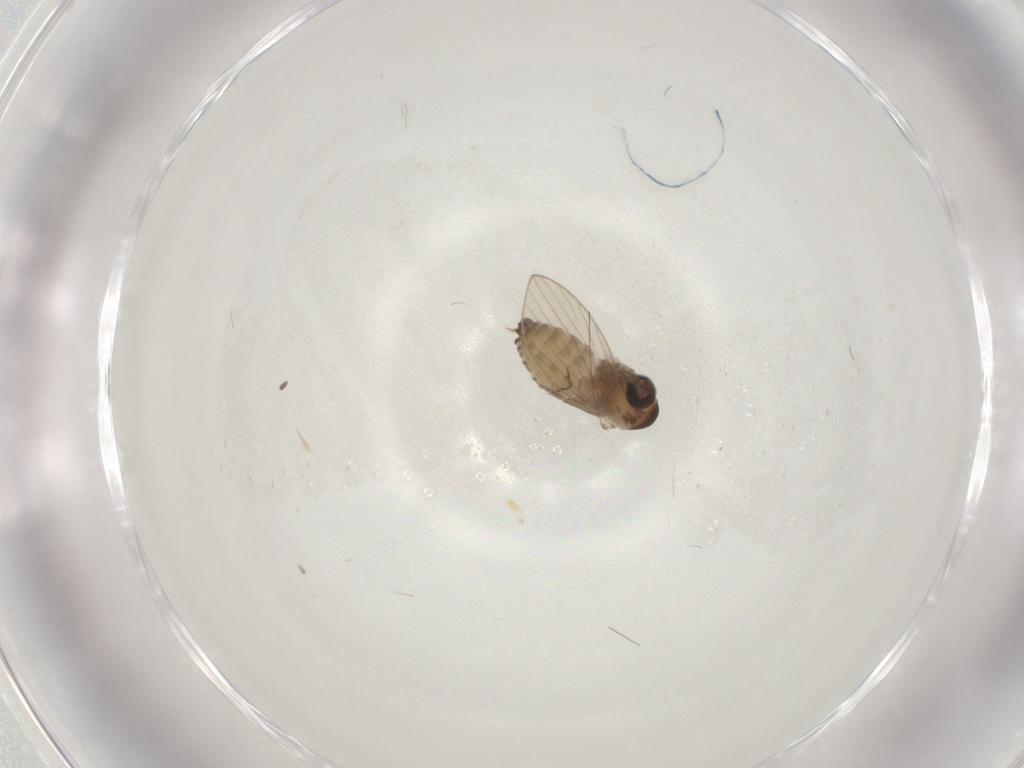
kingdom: Animalia
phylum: Arthropoda
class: Insecta
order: Diptera
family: Psychodidae
